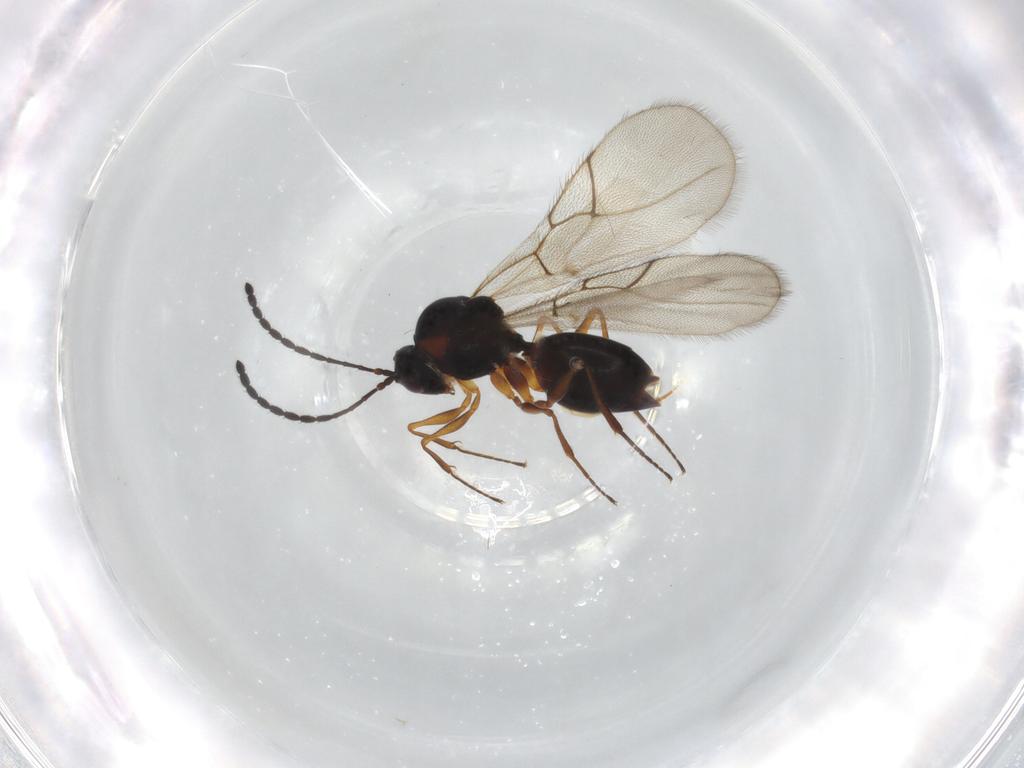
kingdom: Animalia
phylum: Arthropoda
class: Insecta
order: Hymenoptera
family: Figitidae
